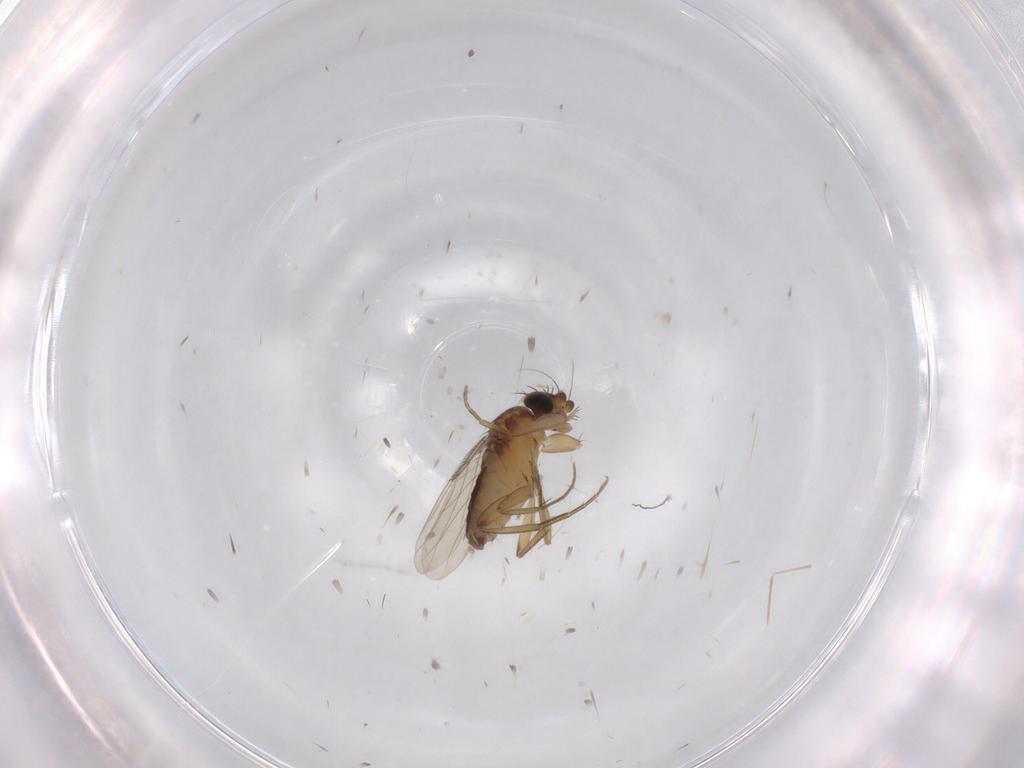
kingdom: Animalia
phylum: Arthropoda
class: Insecta
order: Diptera
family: Phoridae
